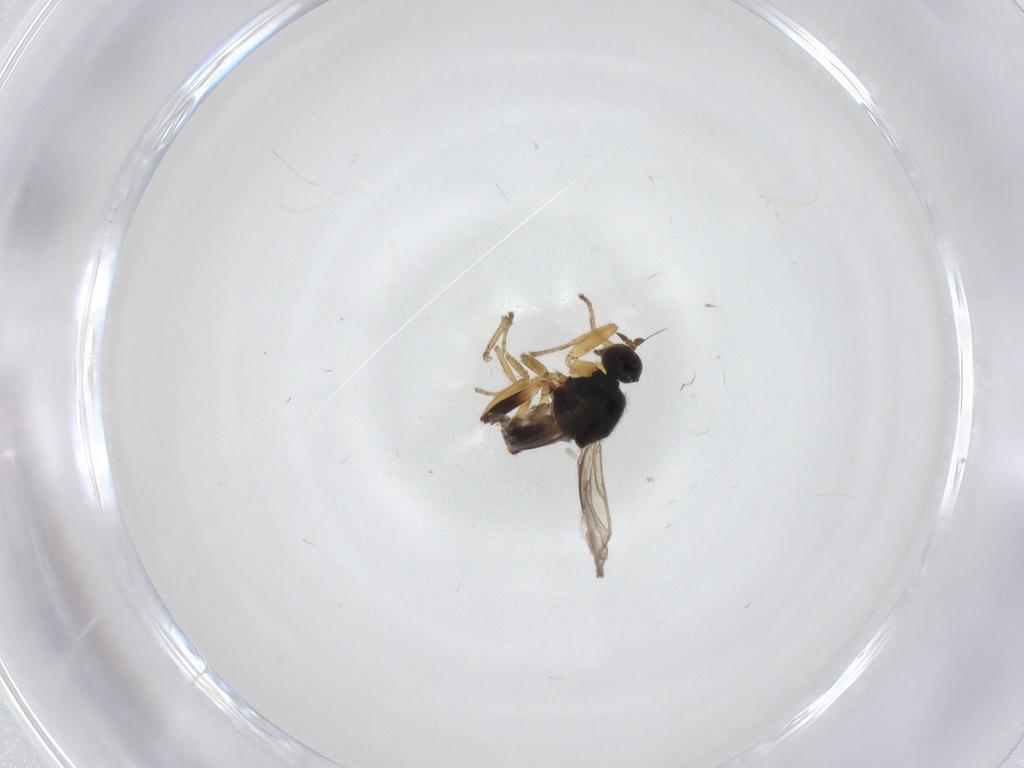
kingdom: Animalia
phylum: Arthropoda
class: Insecta
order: Diptera
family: Hybotidae
